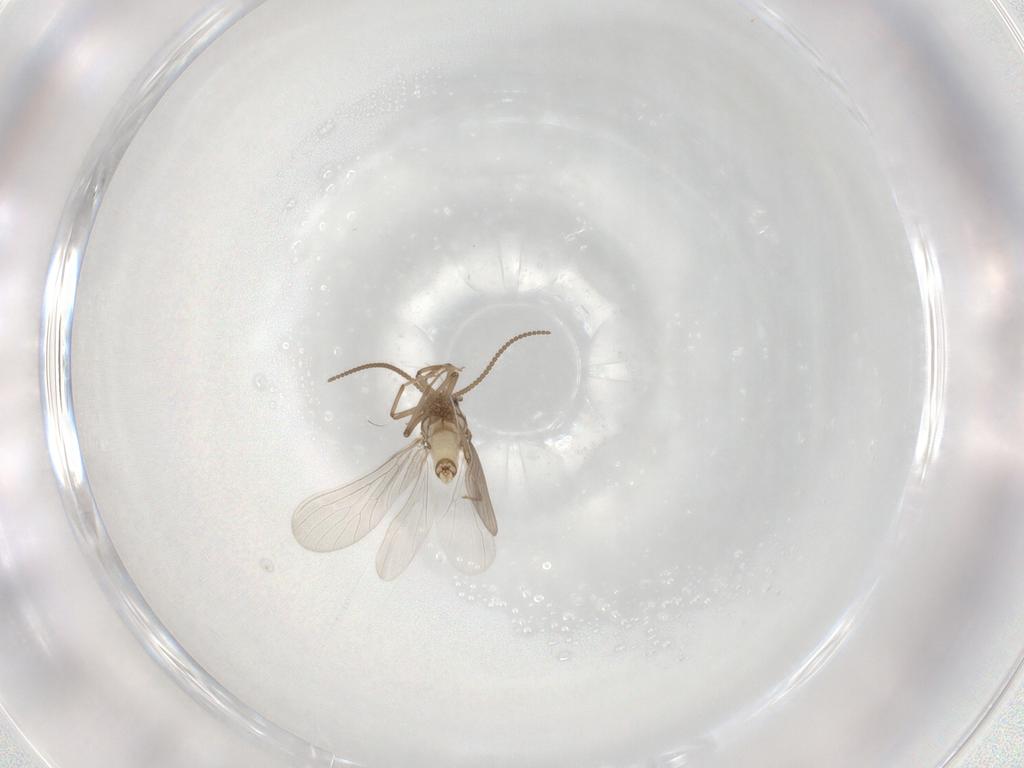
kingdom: Animalia
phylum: Arthropoda
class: Insecta
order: Neuroptera
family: Coniopterygidae
